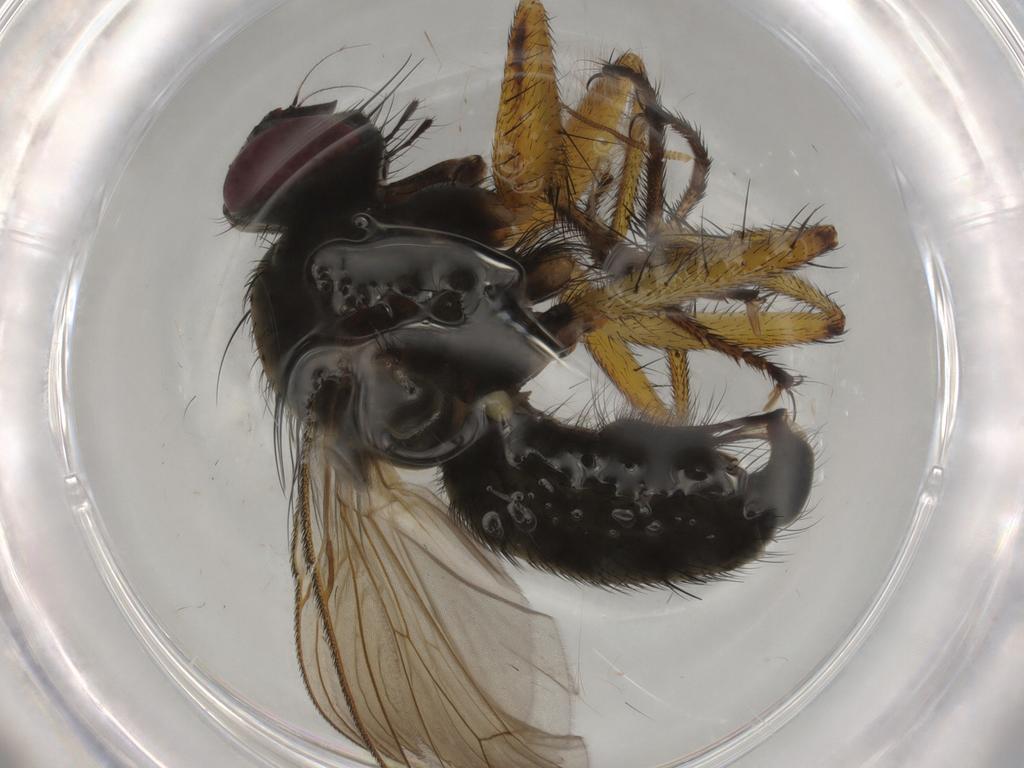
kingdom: Animalia
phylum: Arthropoda
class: Insecta
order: Diptera
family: Muscidae
